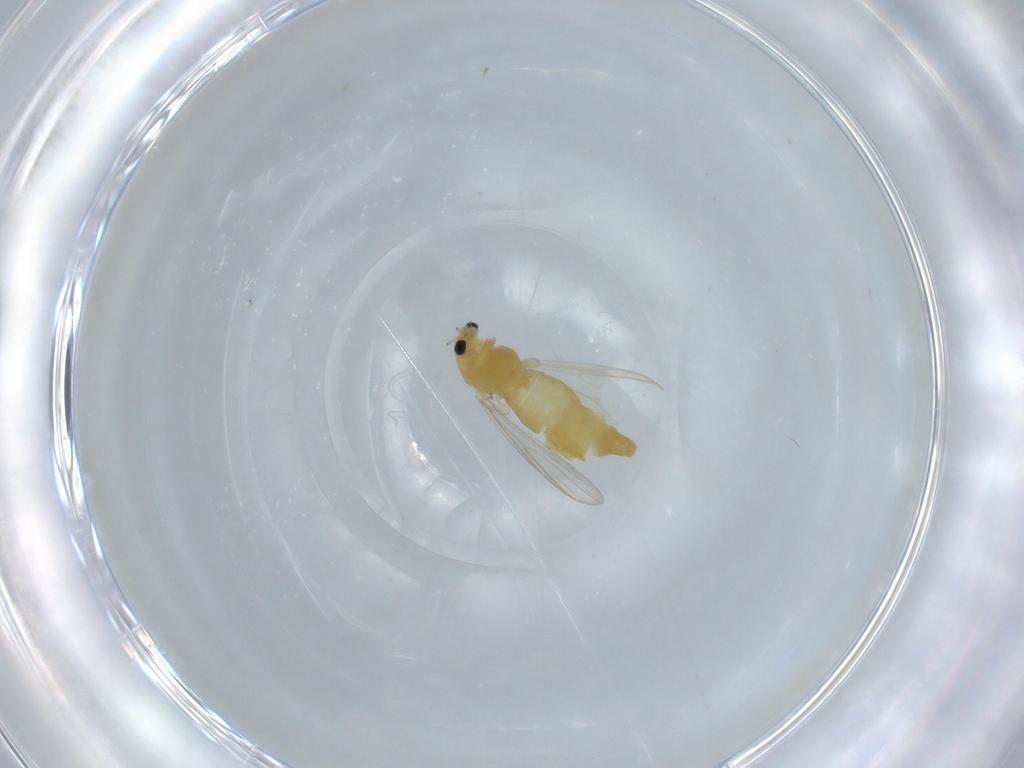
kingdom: Animalia
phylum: Arthropoda
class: Insecta
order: Diptera
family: Chironomidae
